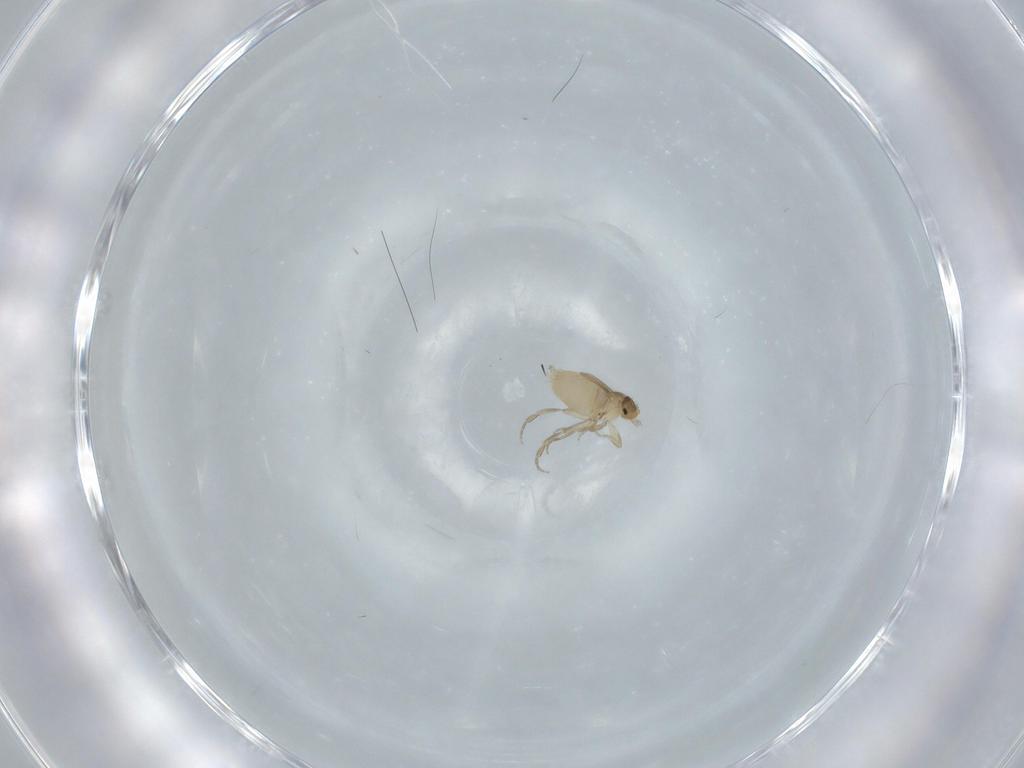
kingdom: Animalia
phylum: Arthropoda
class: Insecta
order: Diptera
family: Phoridae
